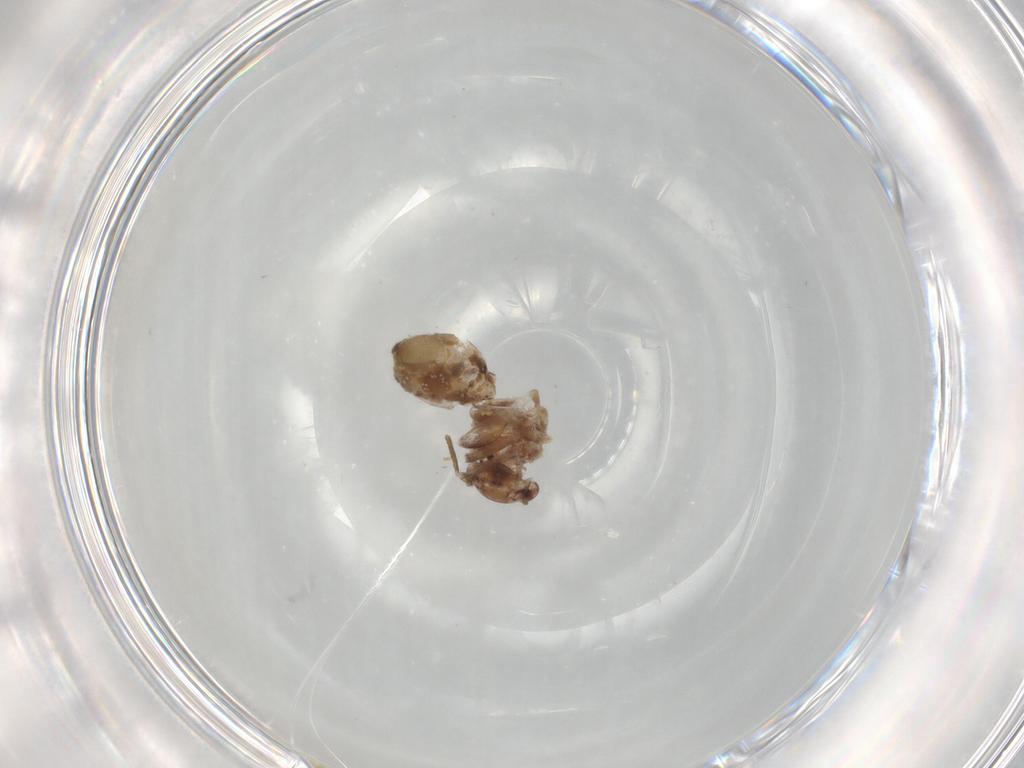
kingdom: Animalia
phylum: Arthropoda
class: Insecta
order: Psocodea
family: Lepidopsocidae
